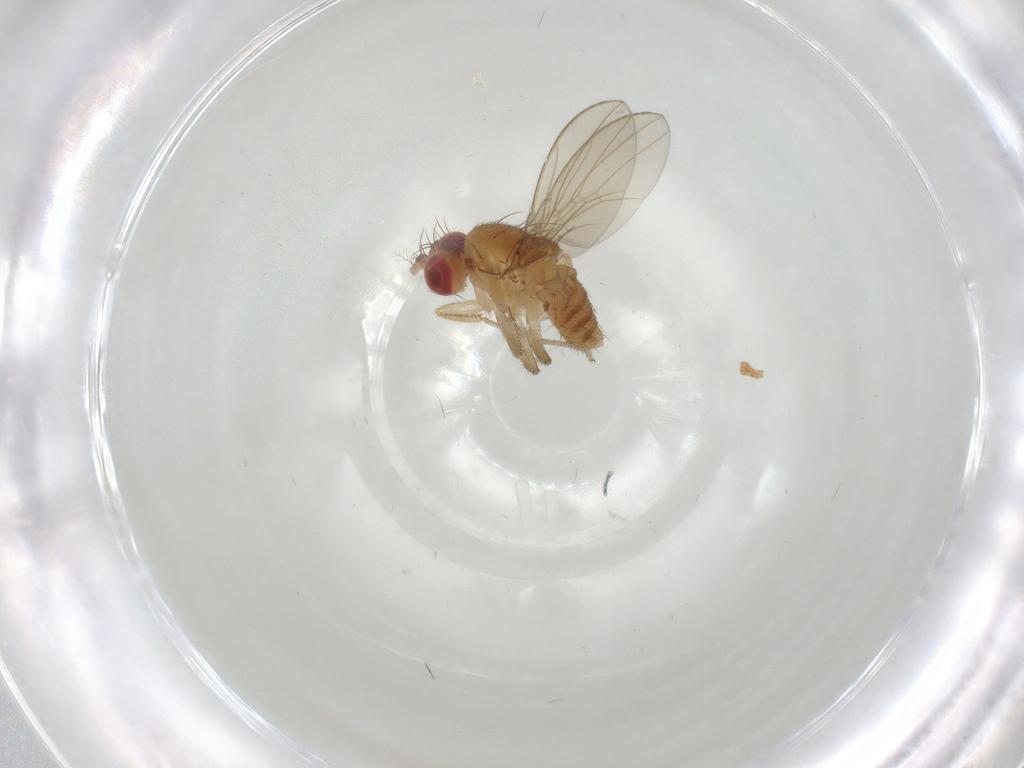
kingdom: Animalia
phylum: Arthropoda
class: Insecta
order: Diptera
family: Drosophilidae
